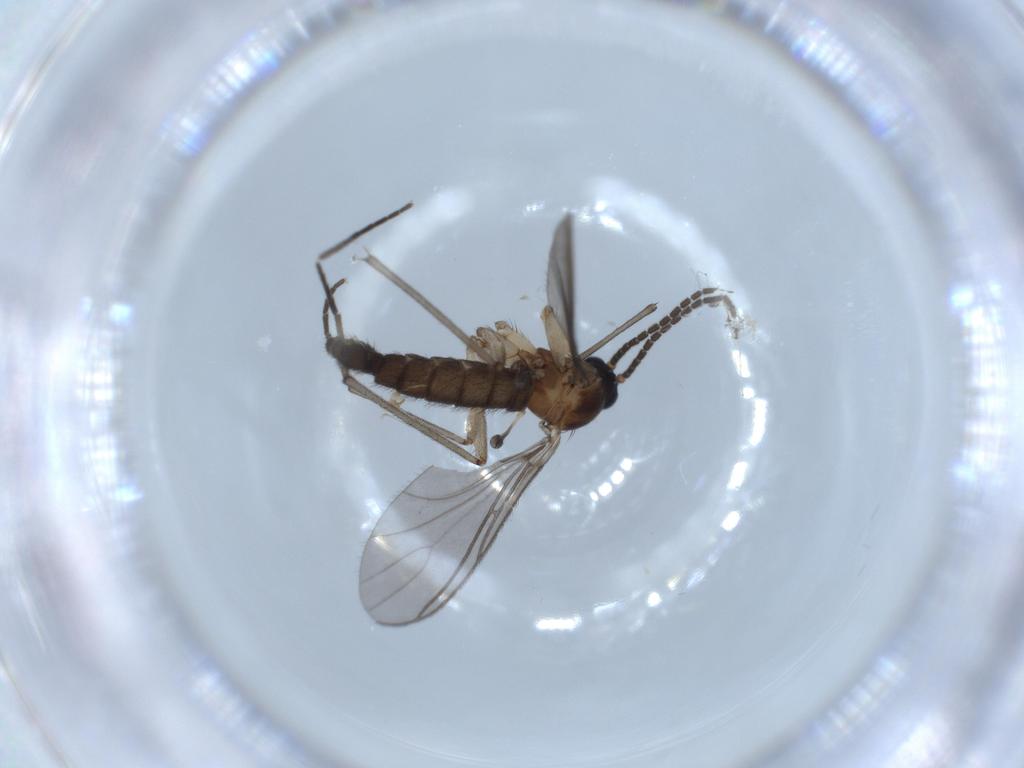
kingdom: Animalia
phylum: Arthropoda
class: Insecta
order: Diptera
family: Sciaridae
